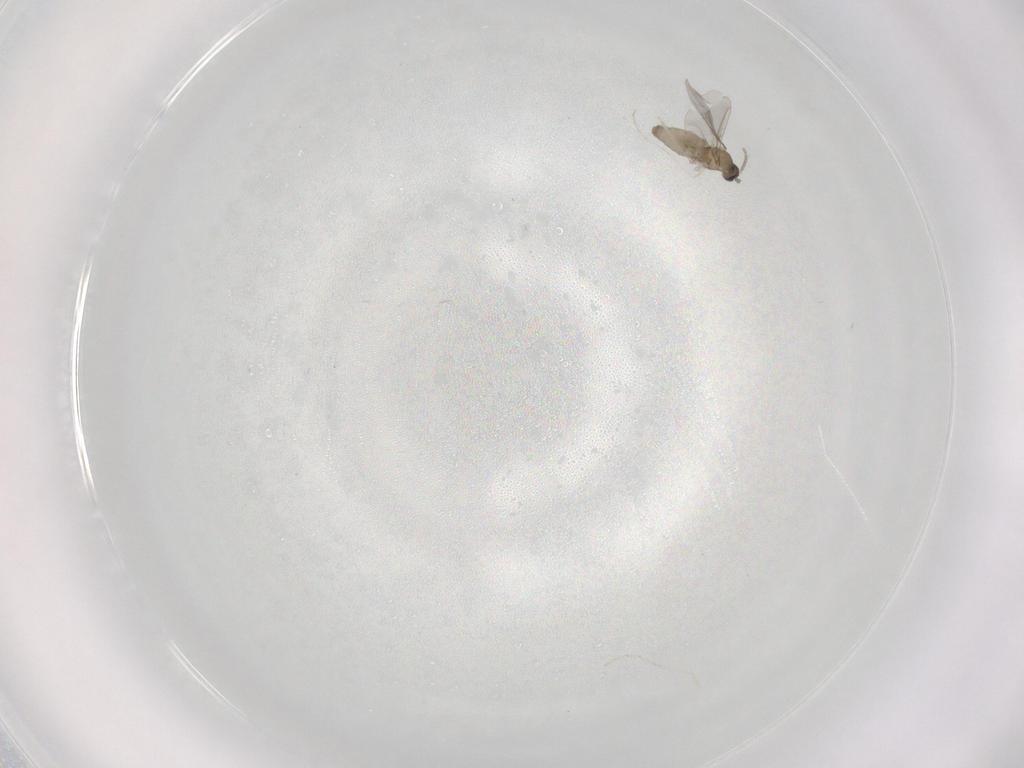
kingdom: Animalia
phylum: Arthropoda
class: Insecta
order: Diptera
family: Cecidomyiidae
